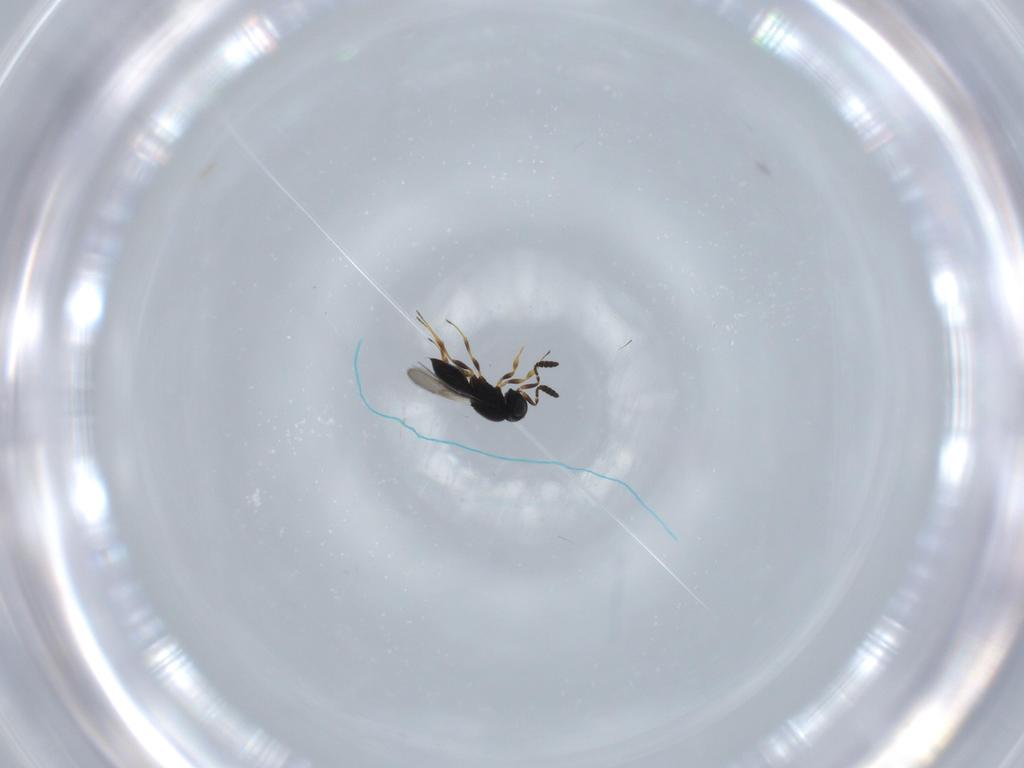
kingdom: Animalia
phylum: Arthropoda
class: Insecta
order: Hymenoptera
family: Scelionidae
